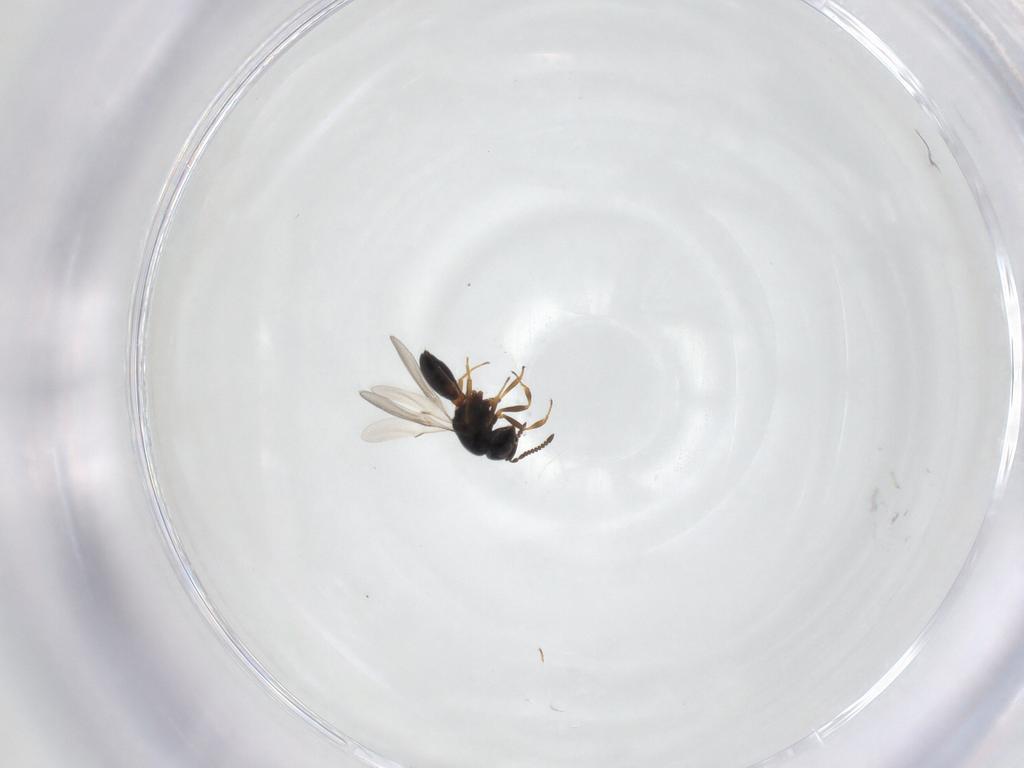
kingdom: Animalia
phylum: Arthropoda
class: Insecta
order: Hymenoptera
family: Scelionidae
